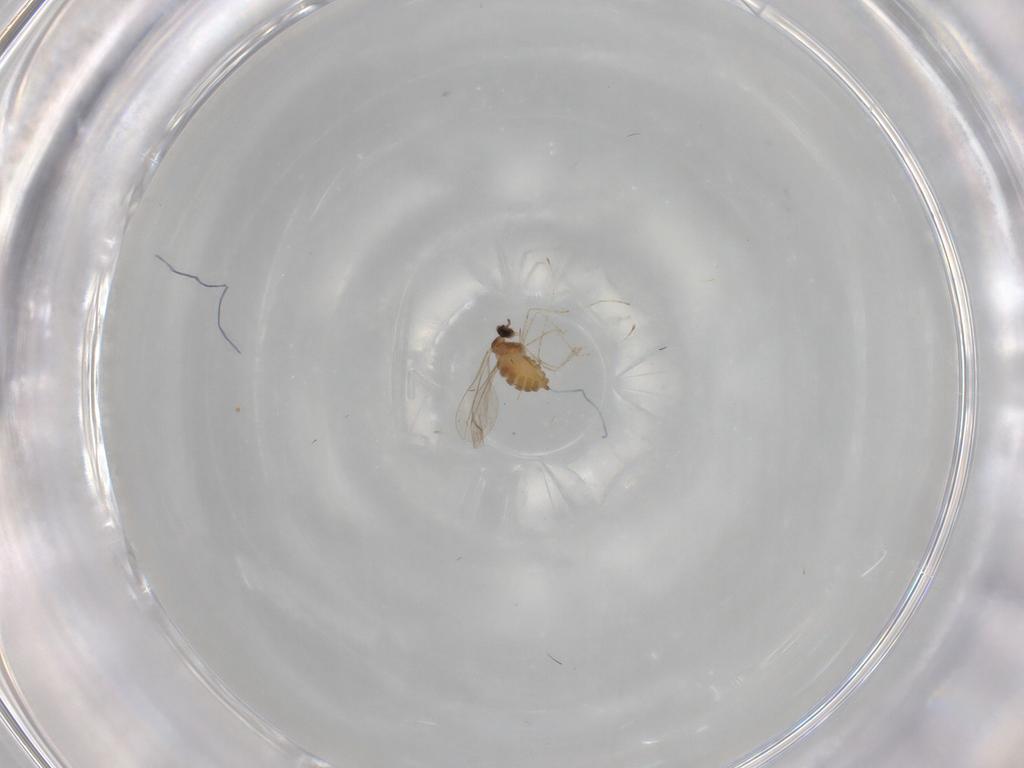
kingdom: Animalia
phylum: Arthropoda
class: Insecta
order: Diptera
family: Cecidomyiidae
